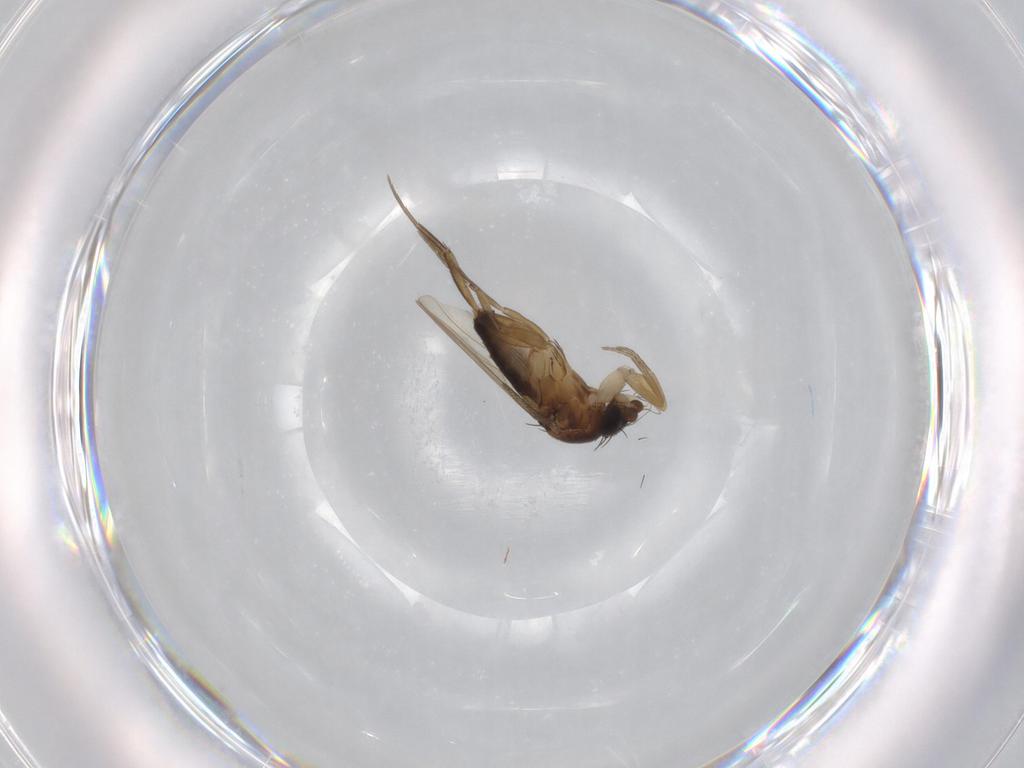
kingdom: Animalia
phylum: Arthropoda
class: Insecta
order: Diptera
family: Phoridae
